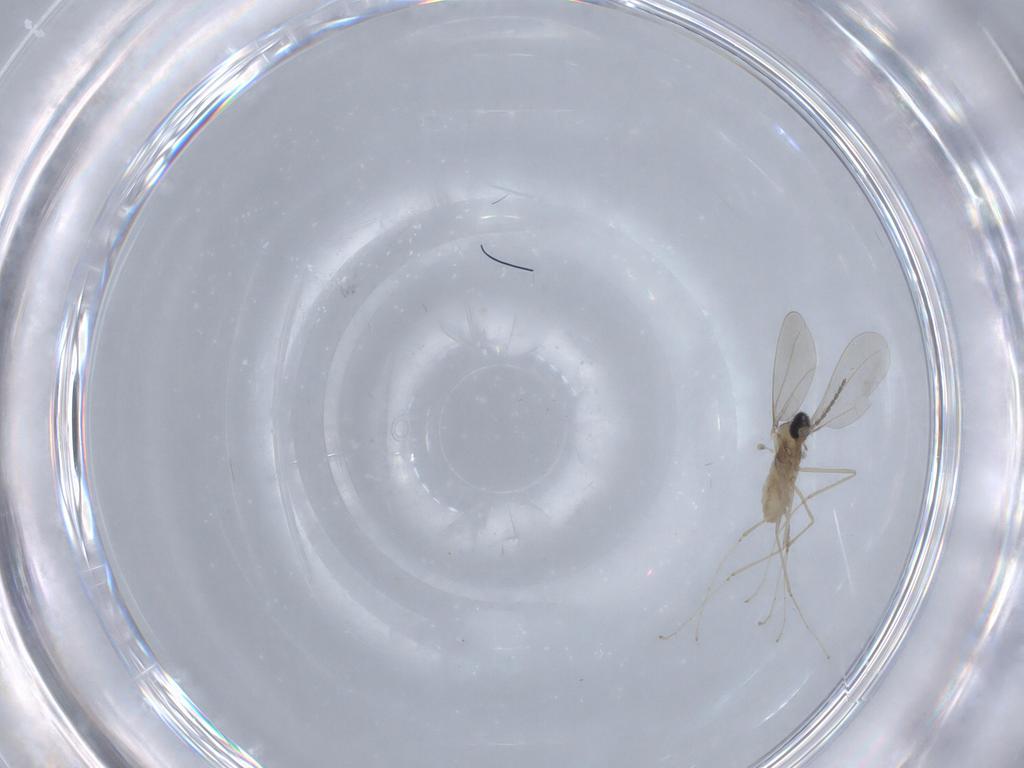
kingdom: Animalia
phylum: Arthropoda
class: Insecta
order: Diptera
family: Cecidomyiidae
